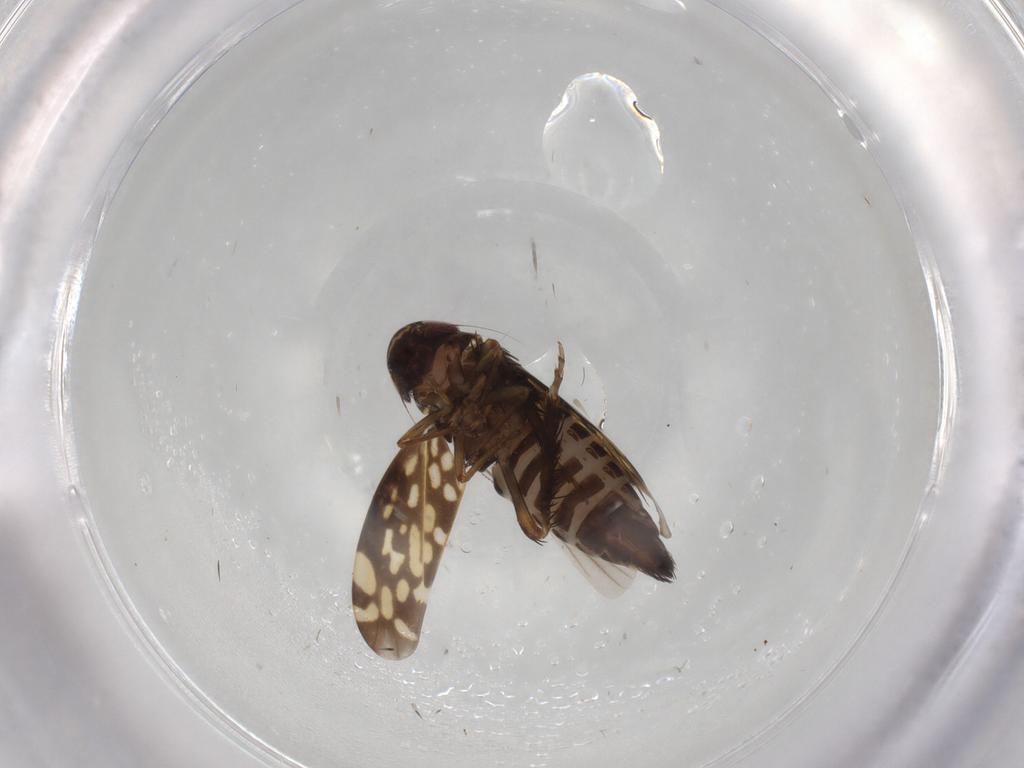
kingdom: Animalia
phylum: Arthropoda
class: Insecta
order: Hemiptera
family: Cicadellidae
